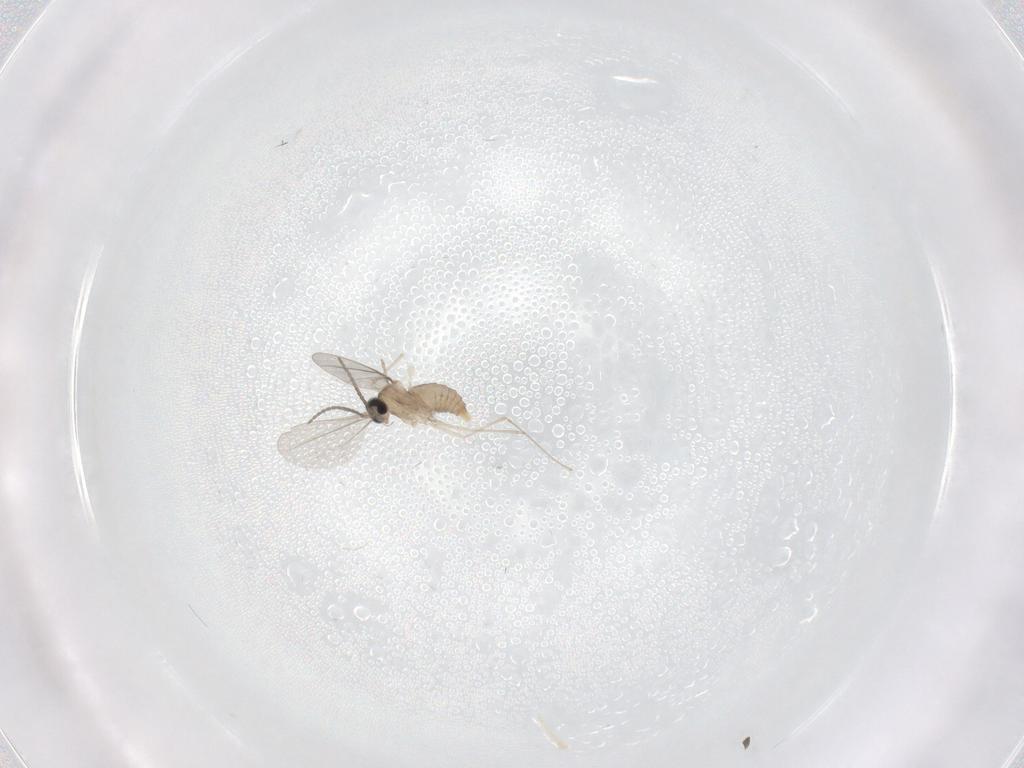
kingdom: Animalia
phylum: Arthropoda
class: Insecta
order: Diptera
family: Cecidomyiidae
